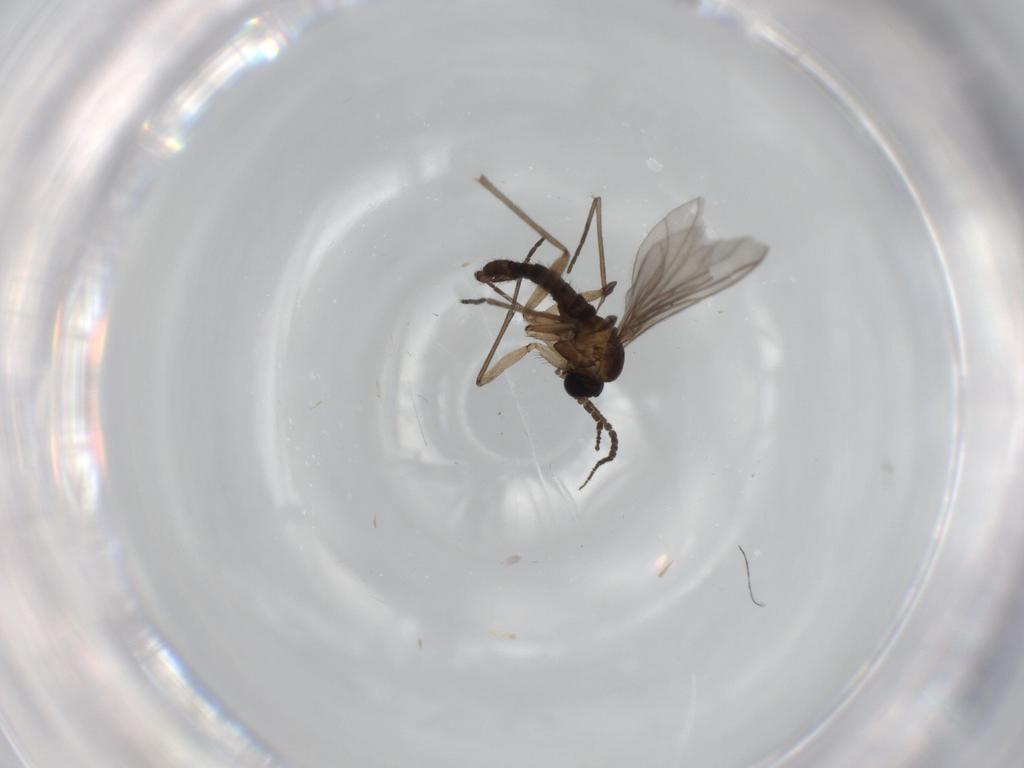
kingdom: Animalia
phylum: Arthropoda
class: Insecta
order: Diptera
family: Sciaridae
